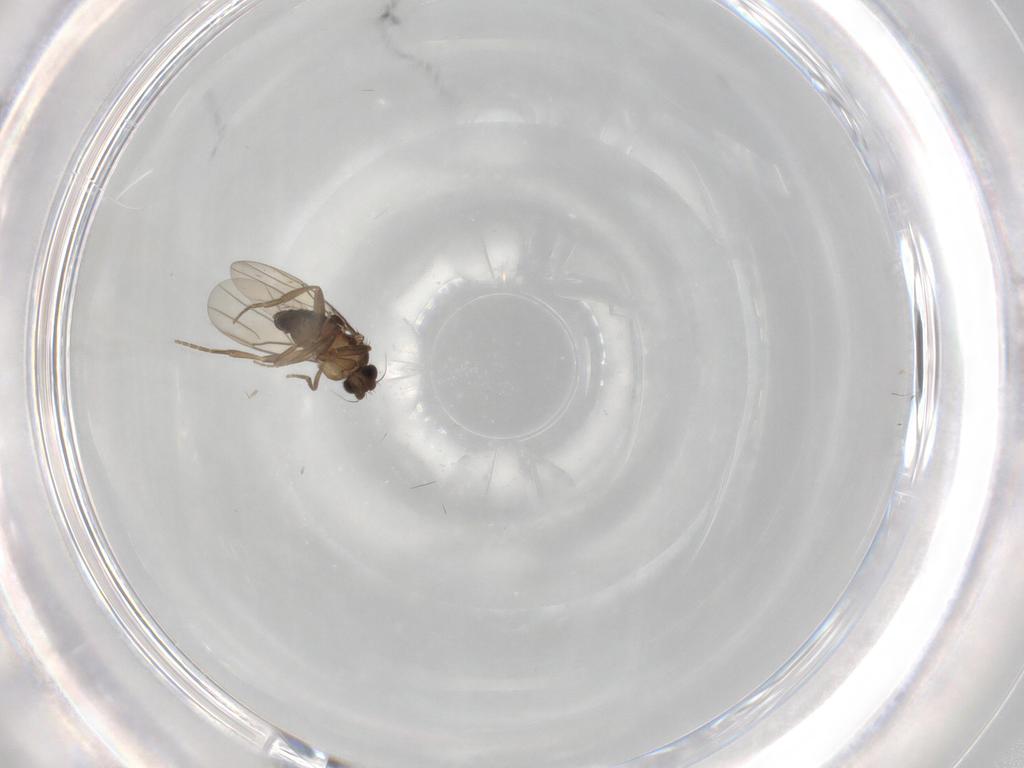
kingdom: Animalia
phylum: Arthropoda
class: Insecta
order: Diptera
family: Phoridae
